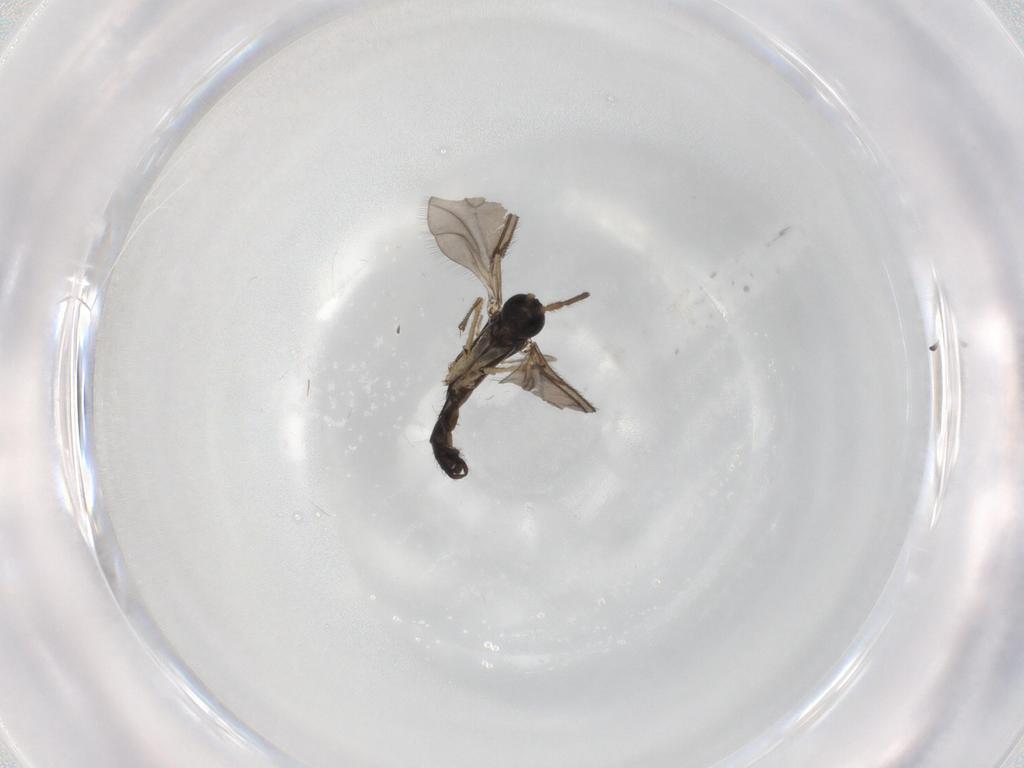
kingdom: Animalia
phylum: Arthropoda
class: Insecta
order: Diptera
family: Sciaridae
